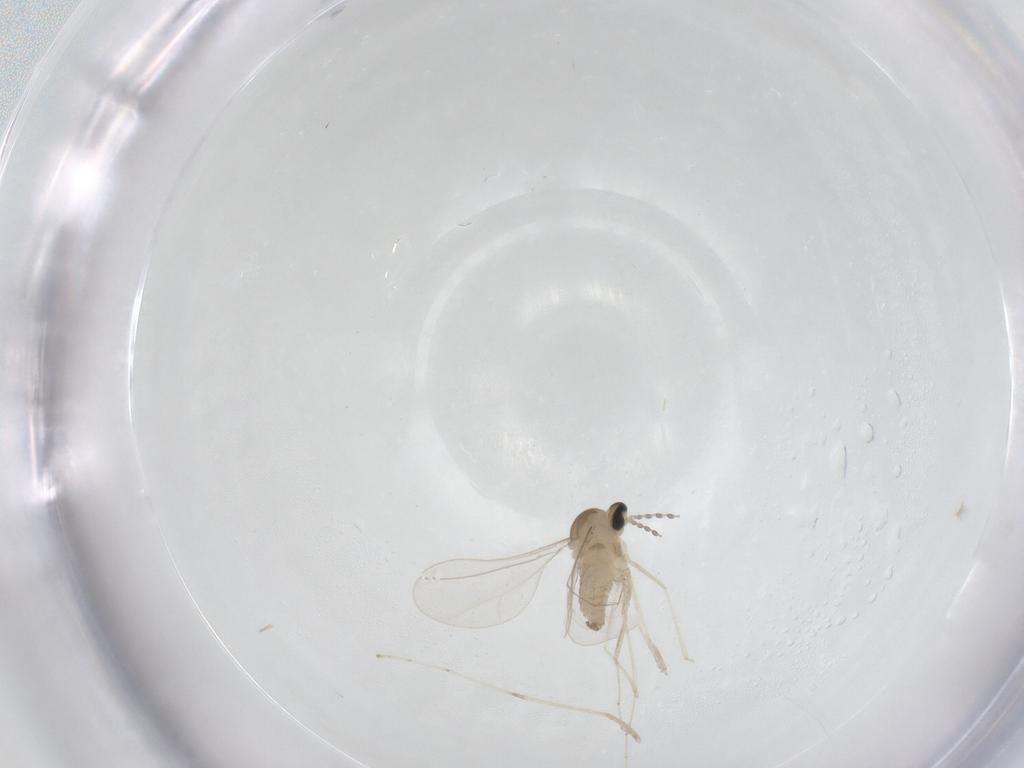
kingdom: Animalia
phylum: Arthropoda
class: Insecta
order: Diptera
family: Cecidomyiidae
